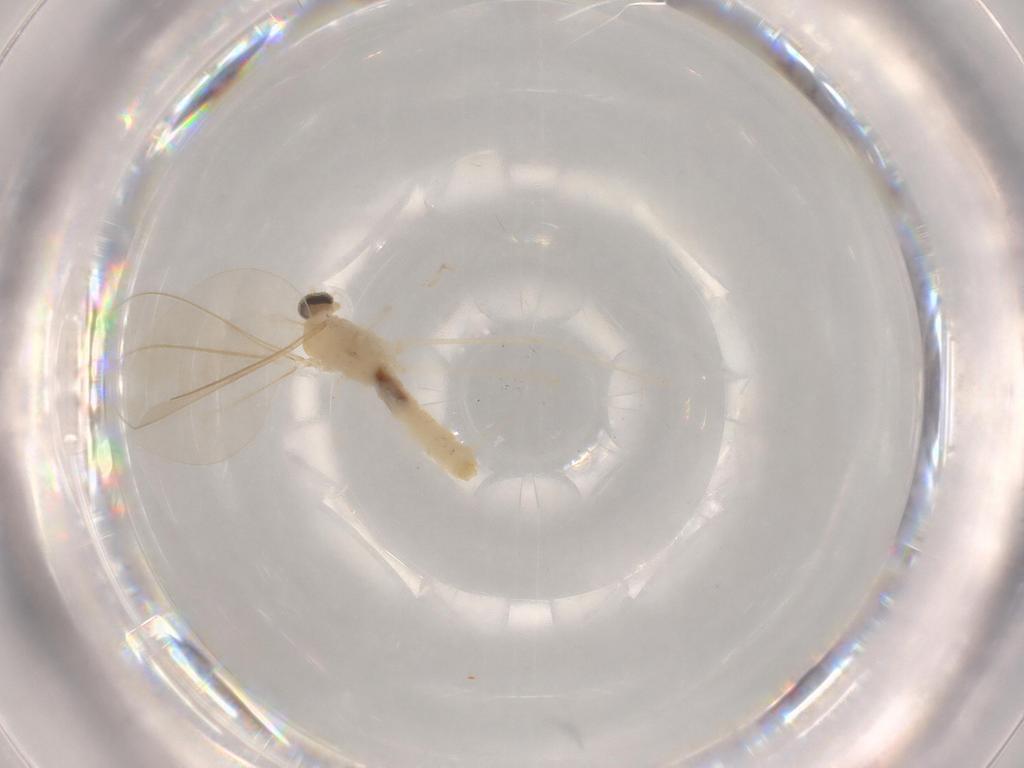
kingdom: Animalia
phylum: Arthropoda
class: Insecta
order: Diptera
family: Cecidomyiidae
